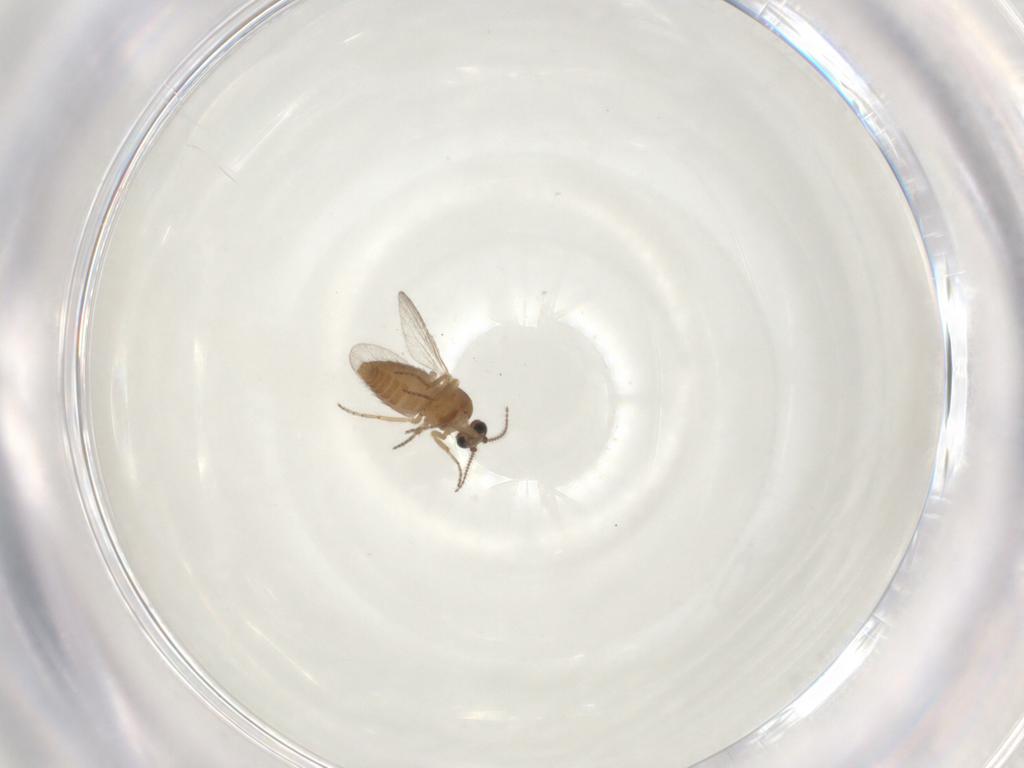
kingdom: Animalia
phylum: Arthropoda
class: Insecta
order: Diptera
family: Ceratopogonidae
